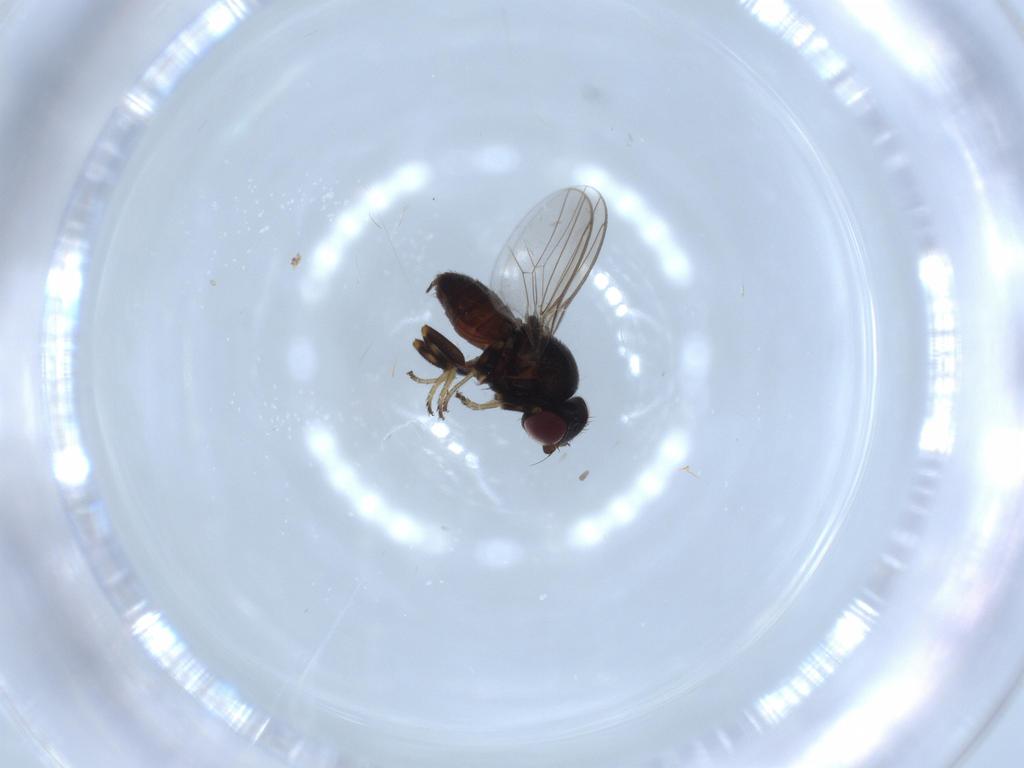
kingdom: Animalia
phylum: Arthropoda
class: Insecta
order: Diptera
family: Chloropidae
